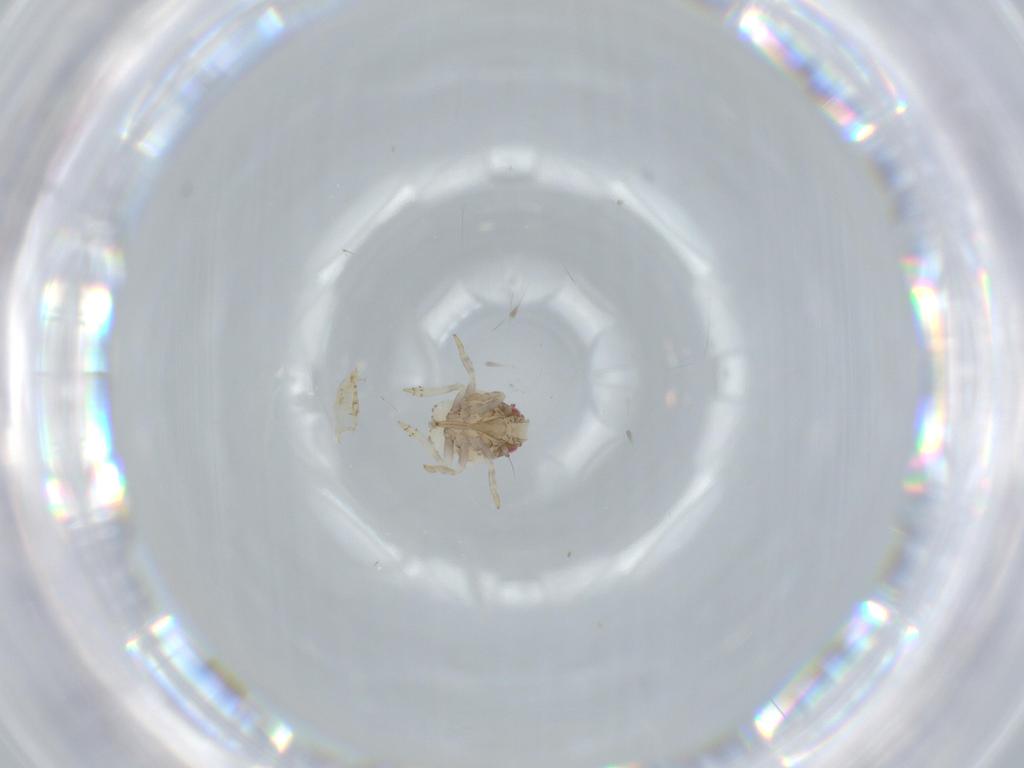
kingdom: Animalia
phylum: Arthropoda
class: Insecta
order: Hemiptera
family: Acanaloniidae
